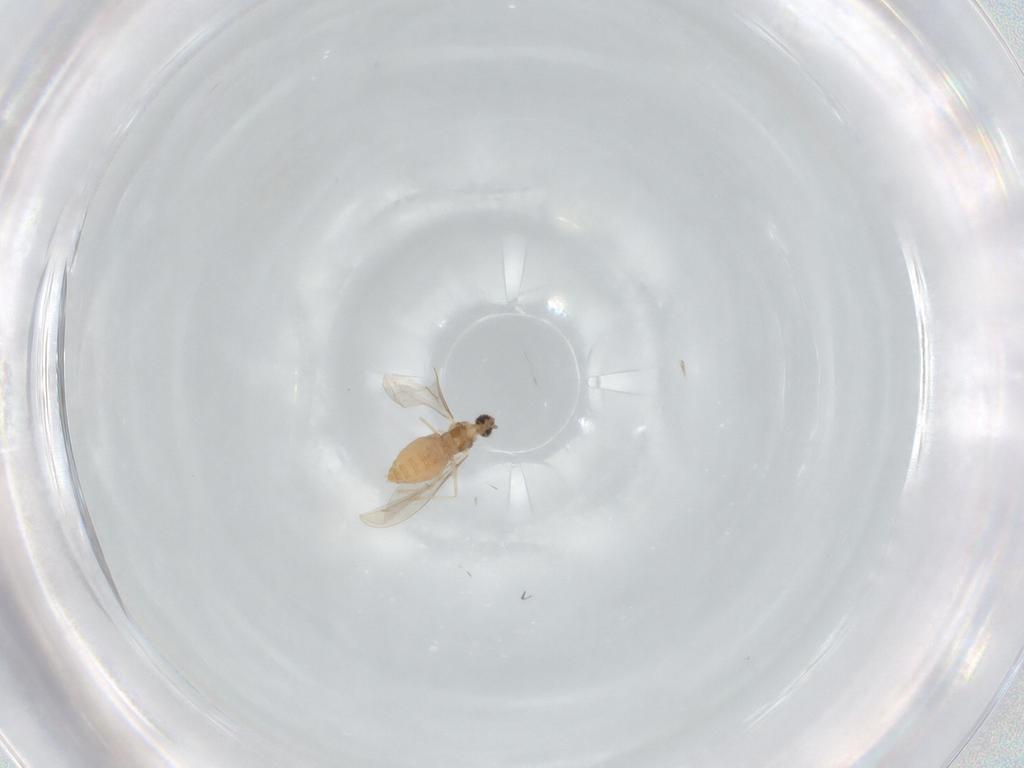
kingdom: Animalia
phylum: Arthropoda
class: Insecta
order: Diptera
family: Cecidomyiidae
